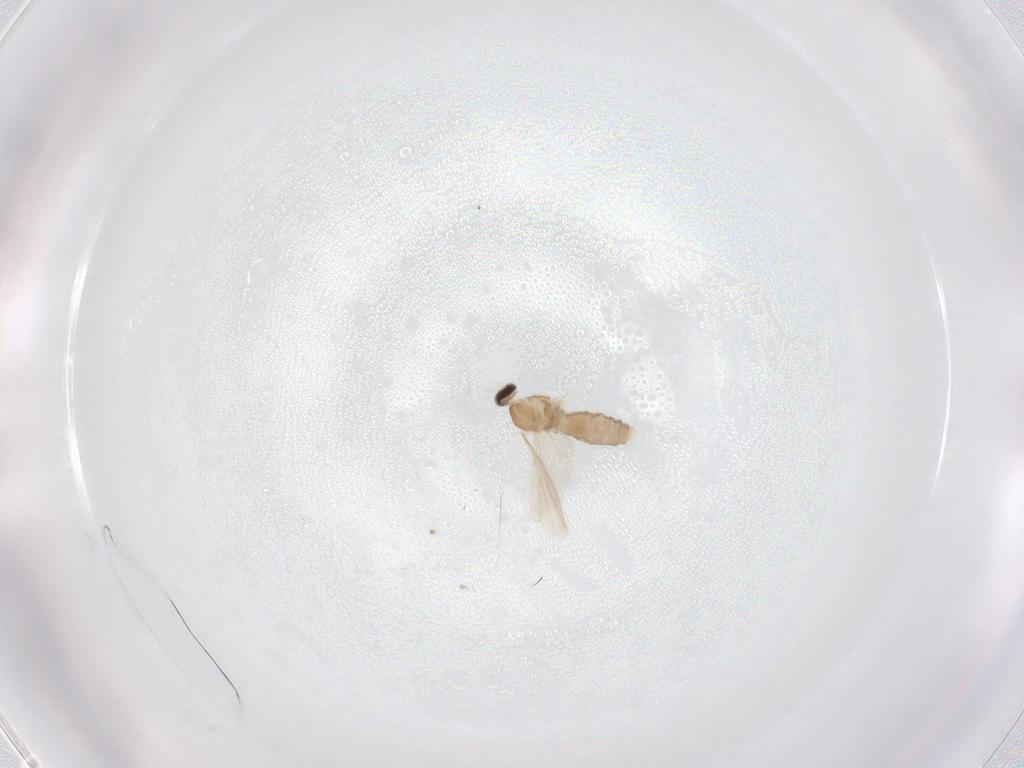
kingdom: Animalia
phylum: Arthropoda
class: Insecta
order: Diptera
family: Cecidomyiidae
